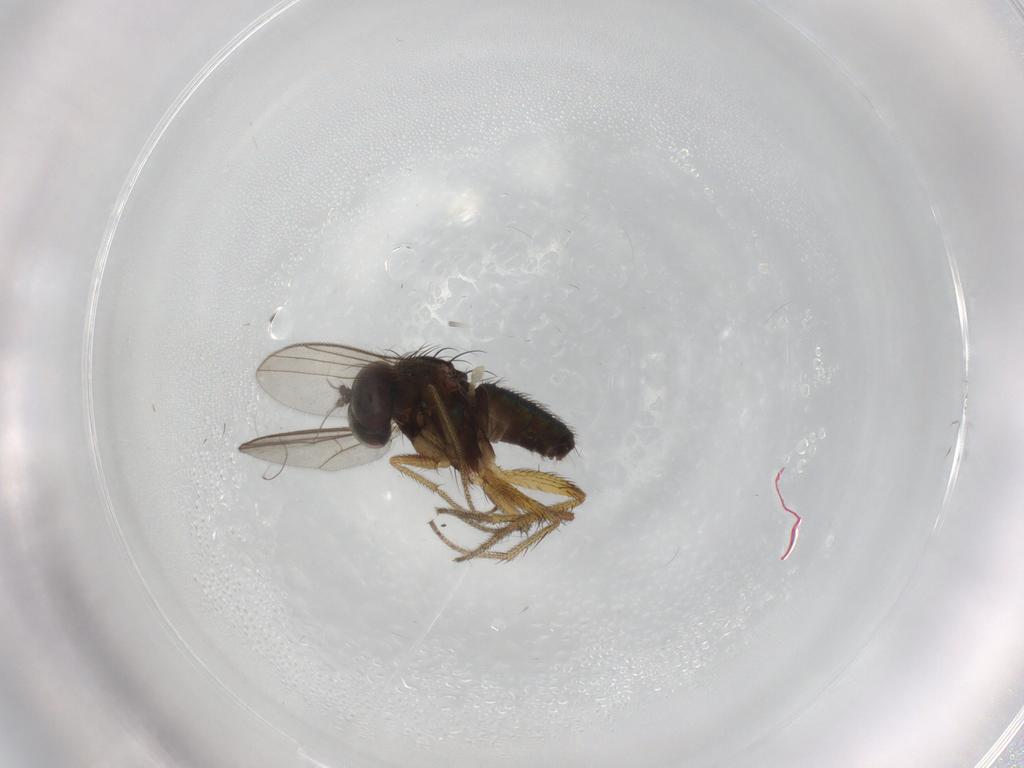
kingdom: Animalia
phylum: Arthropoda
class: Insecta
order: Diptera
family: Dolichopodidae
